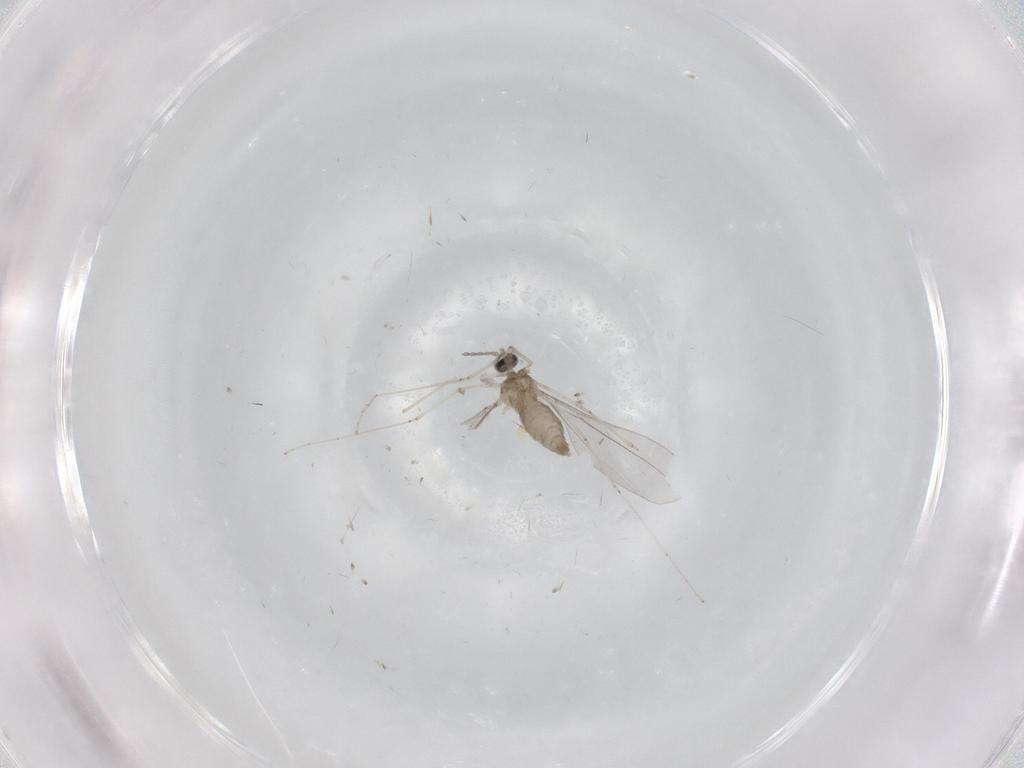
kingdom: Animalia
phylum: Arthropoda
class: Insecta
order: Diptera
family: Cecidomyiidae
